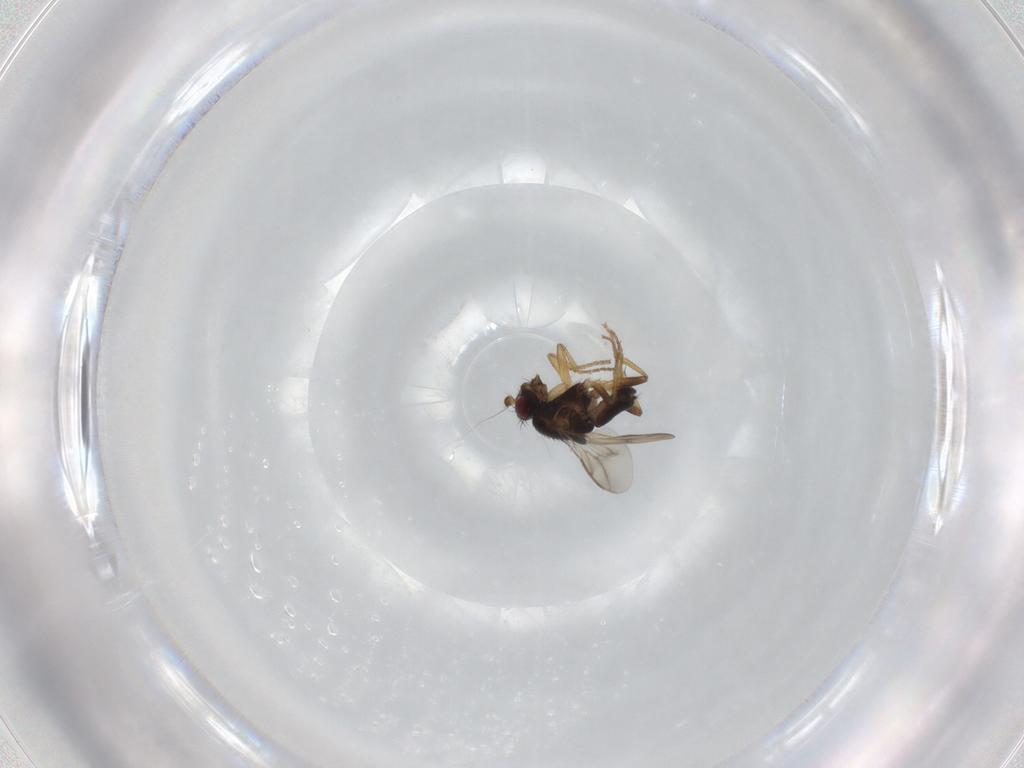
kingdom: Animalia
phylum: Arthropoda
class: Insecta
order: Diptera
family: Sphaeroceridae
